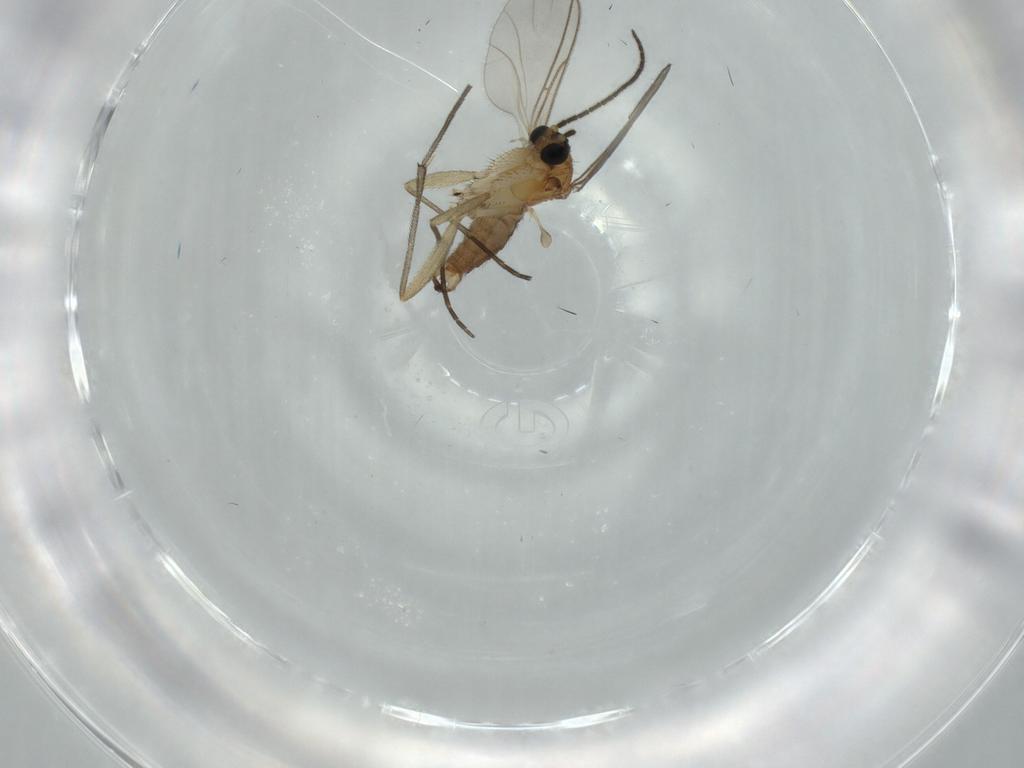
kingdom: Animalia
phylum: Arthropoda
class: Insecta
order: Diptera
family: Sciaridae
